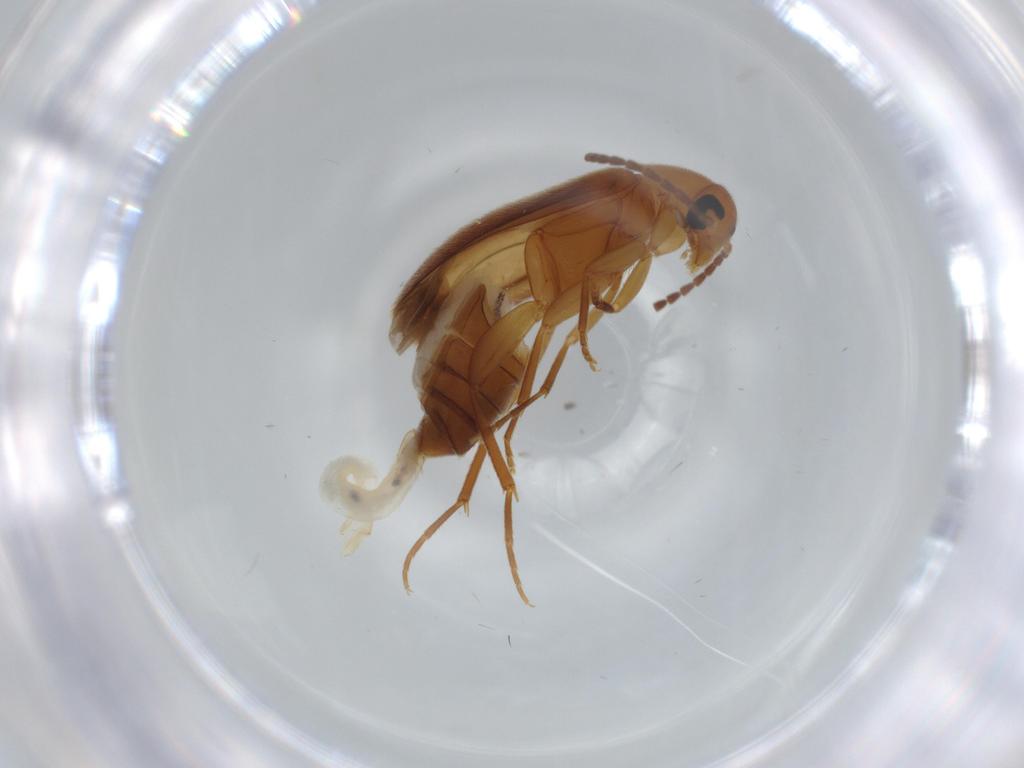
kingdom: Animalia
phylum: Arthropoda
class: Insecta
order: Coleoptera
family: Scraptiidae
